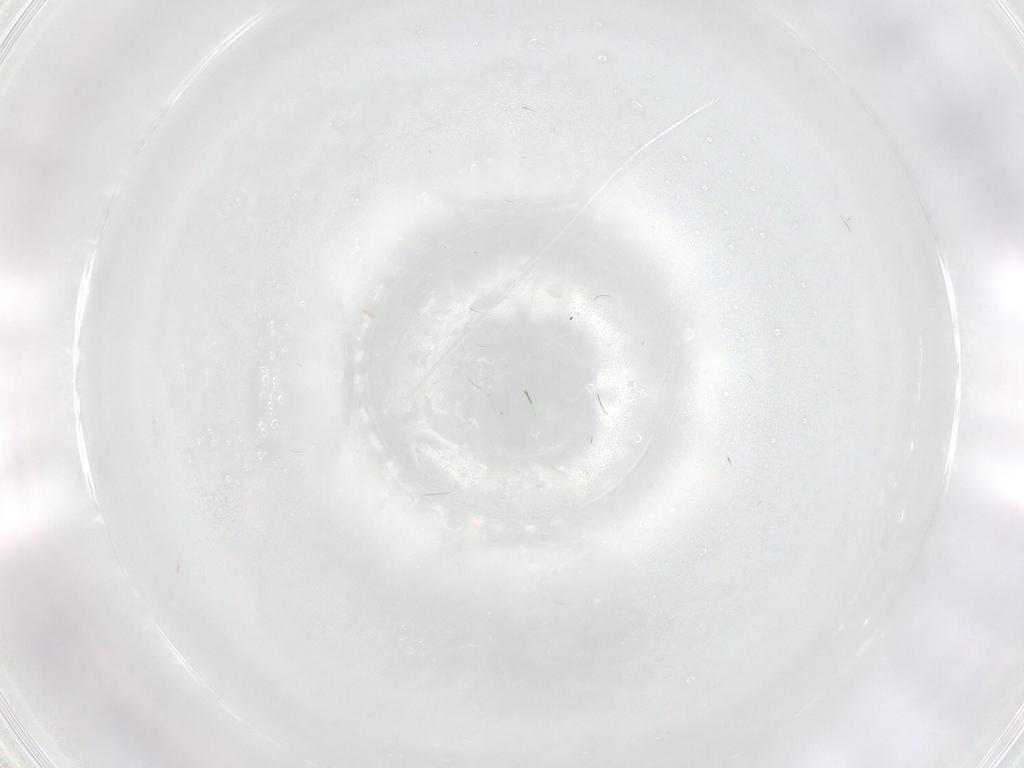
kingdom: Animalia
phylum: Arthropoda
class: Insecta
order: Diptera
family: Chironomidae
